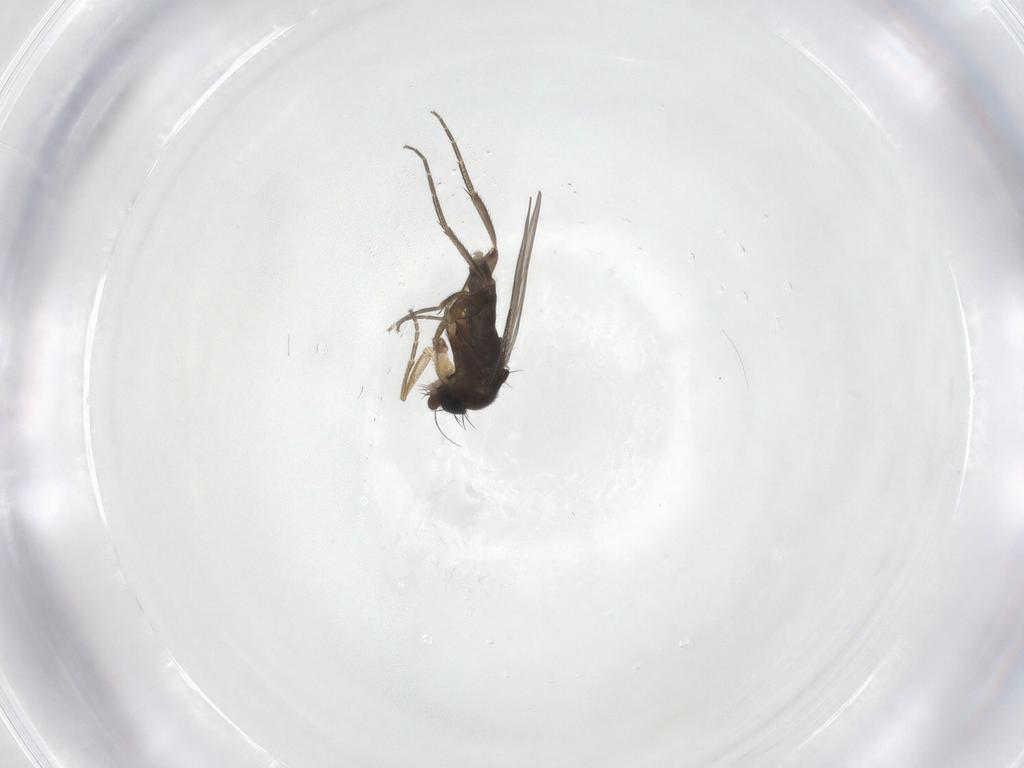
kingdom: Animalia
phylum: Arthropoda
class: Insecta
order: Diptera
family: Phoridae
